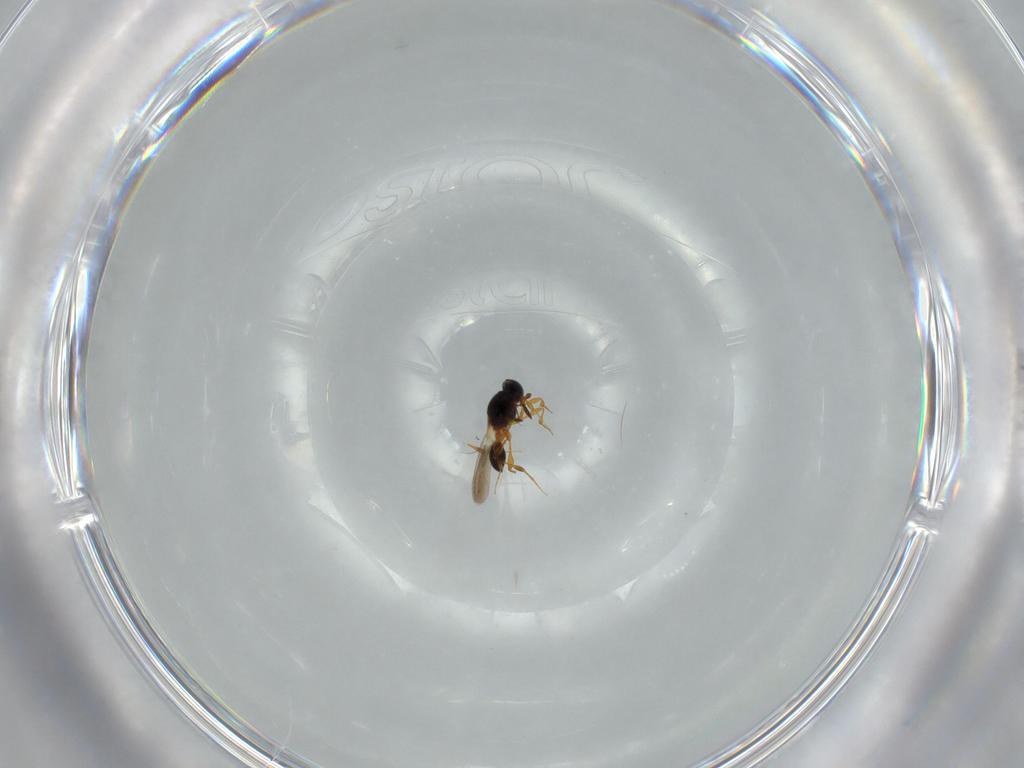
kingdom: Animalia
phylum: Arthropoda
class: Insecta
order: Hymenoptera
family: Platygastridae
